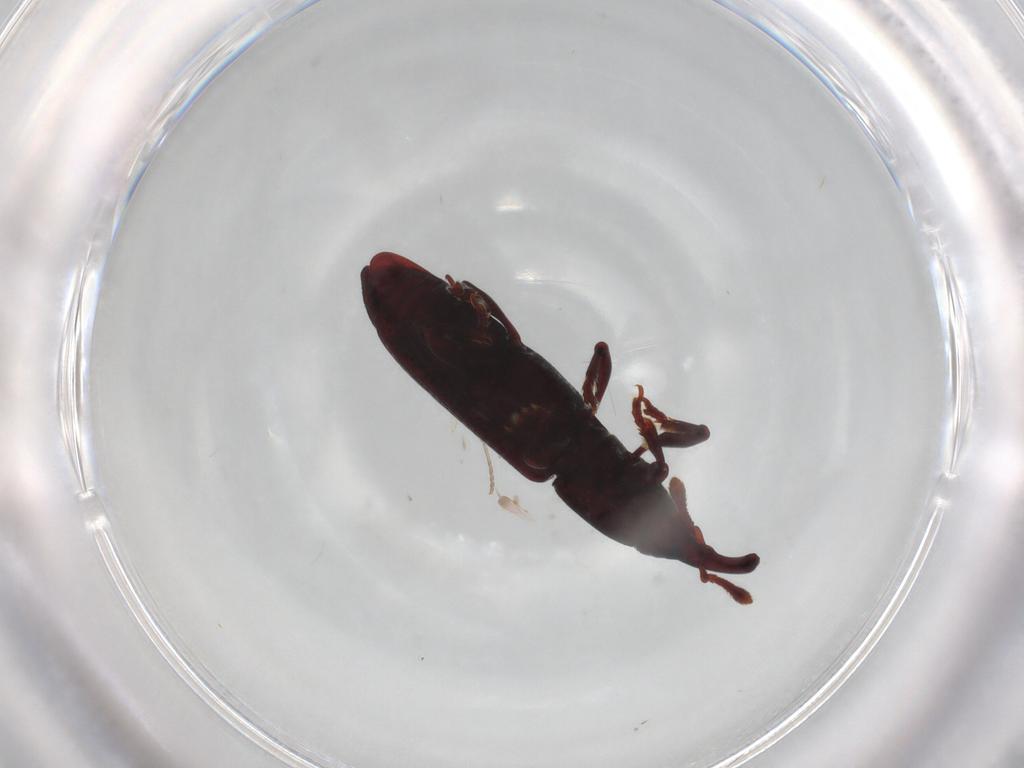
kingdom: Animalia
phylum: Arthropoda
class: Insecta
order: Coleoptera
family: Curculionidae
